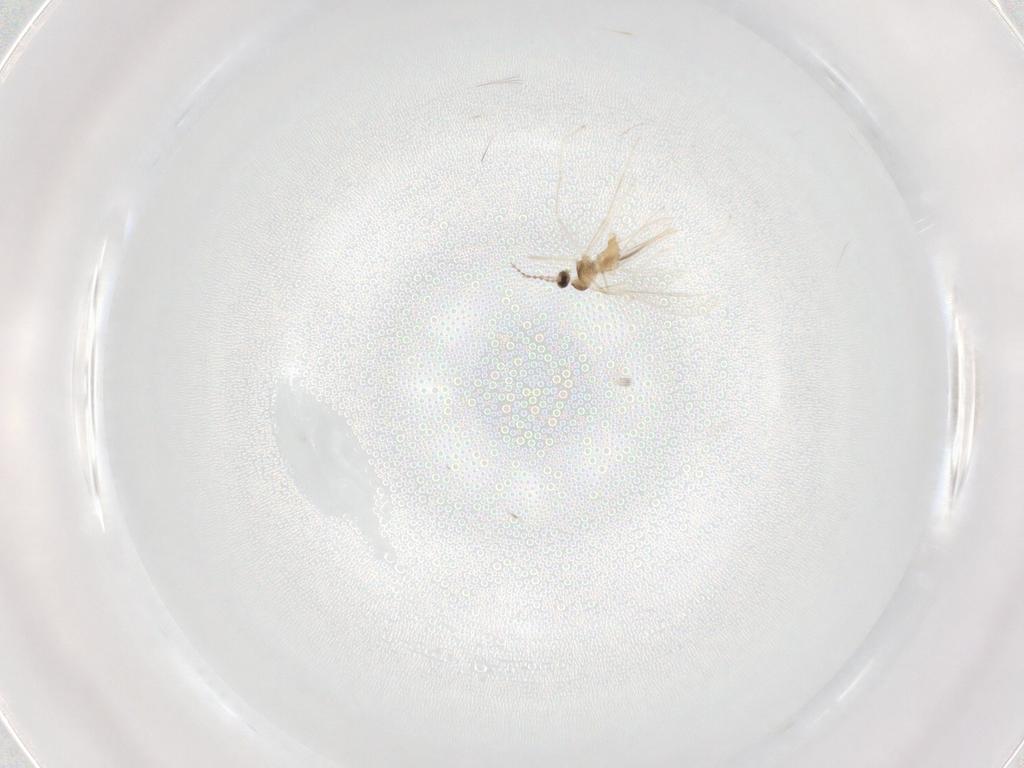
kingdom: Animalia
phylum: Arthropoda
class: Insecta
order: Diptera
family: Cecidomyiidae
